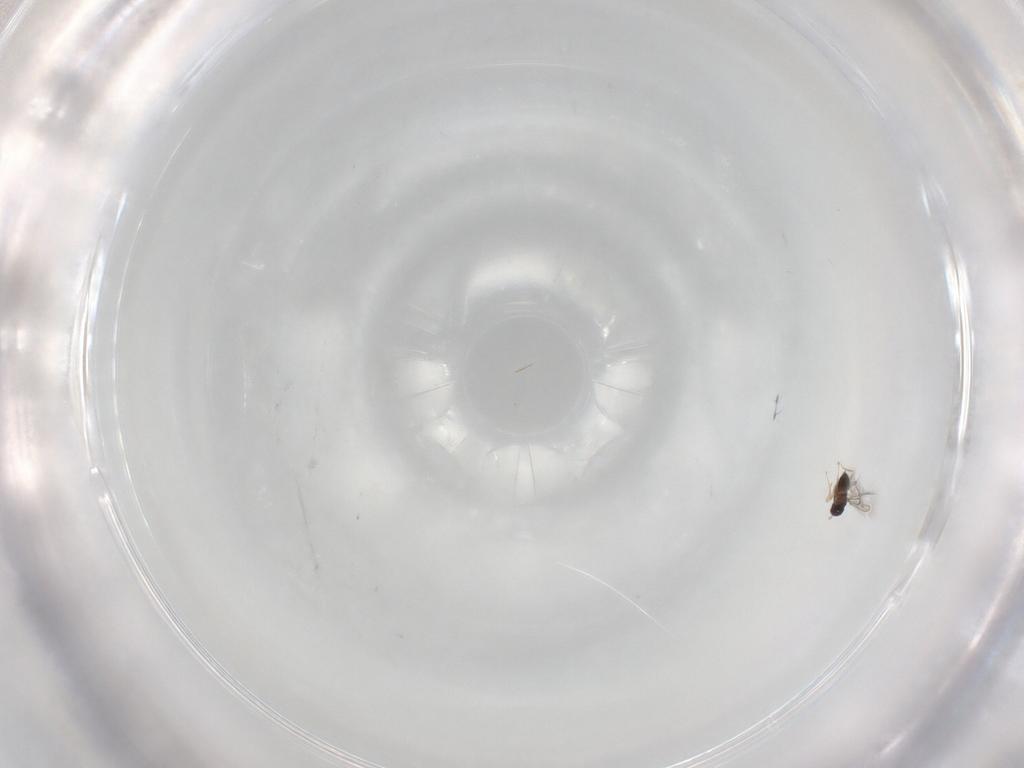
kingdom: Animalia
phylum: Arthropoda
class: Insecta
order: Hymenoptera
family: Mymaridae
